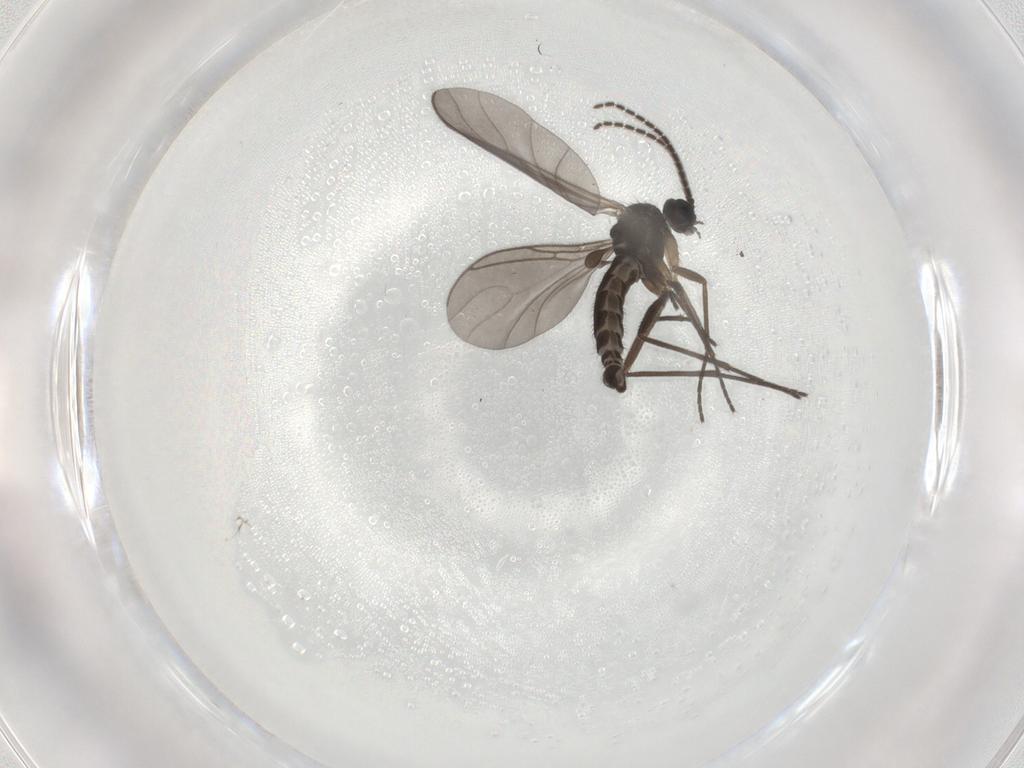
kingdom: Animalia
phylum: Arthropoda
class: Insecta
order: Diptera
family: Sciaridae
